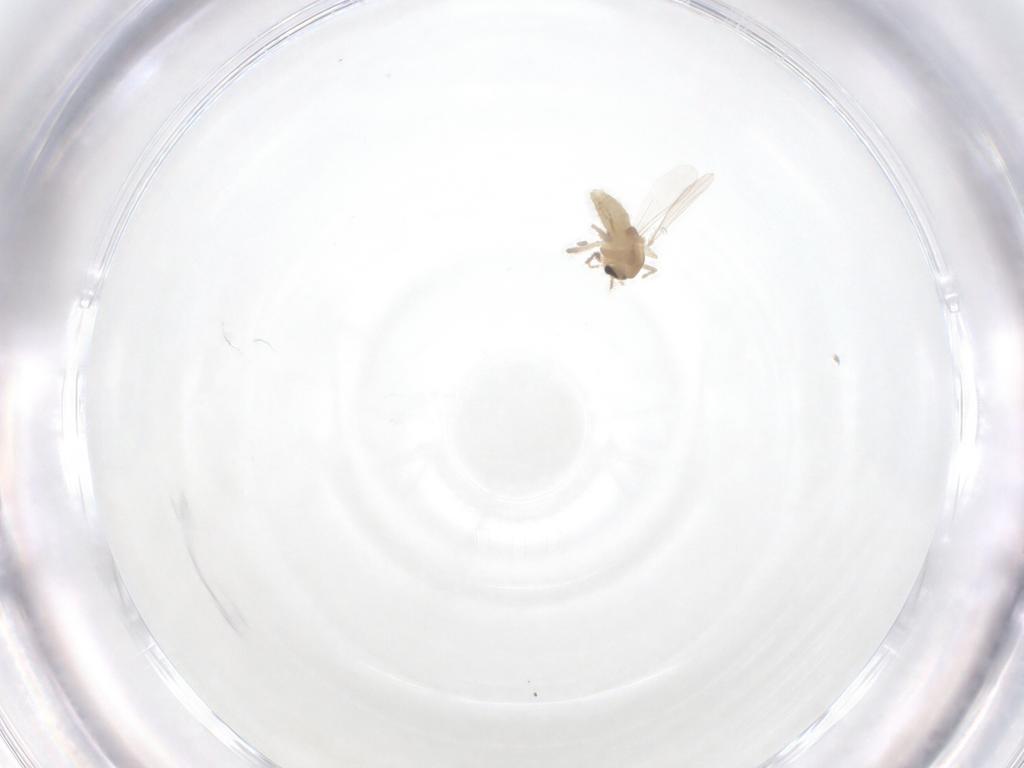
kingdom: Animalia
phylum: Arthropoda
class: Insecta
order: Diptera
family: Chironomidae
